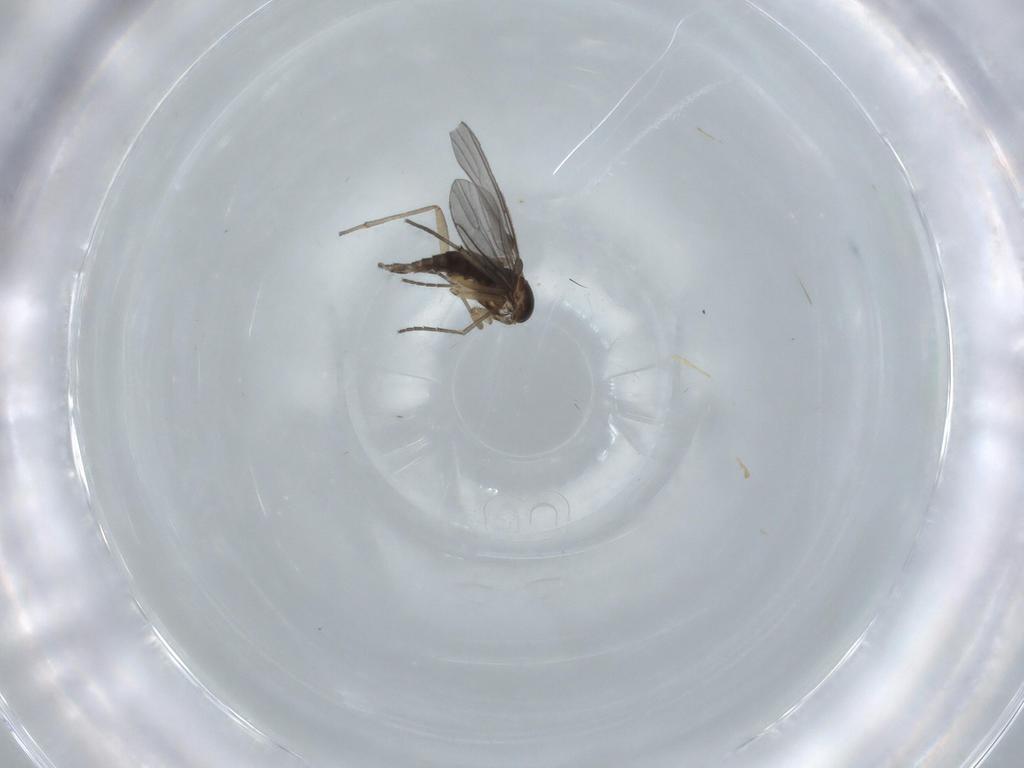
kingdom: Animalia
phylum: Arthropoda
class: Insecta
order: Diptera
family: Sciaridae
